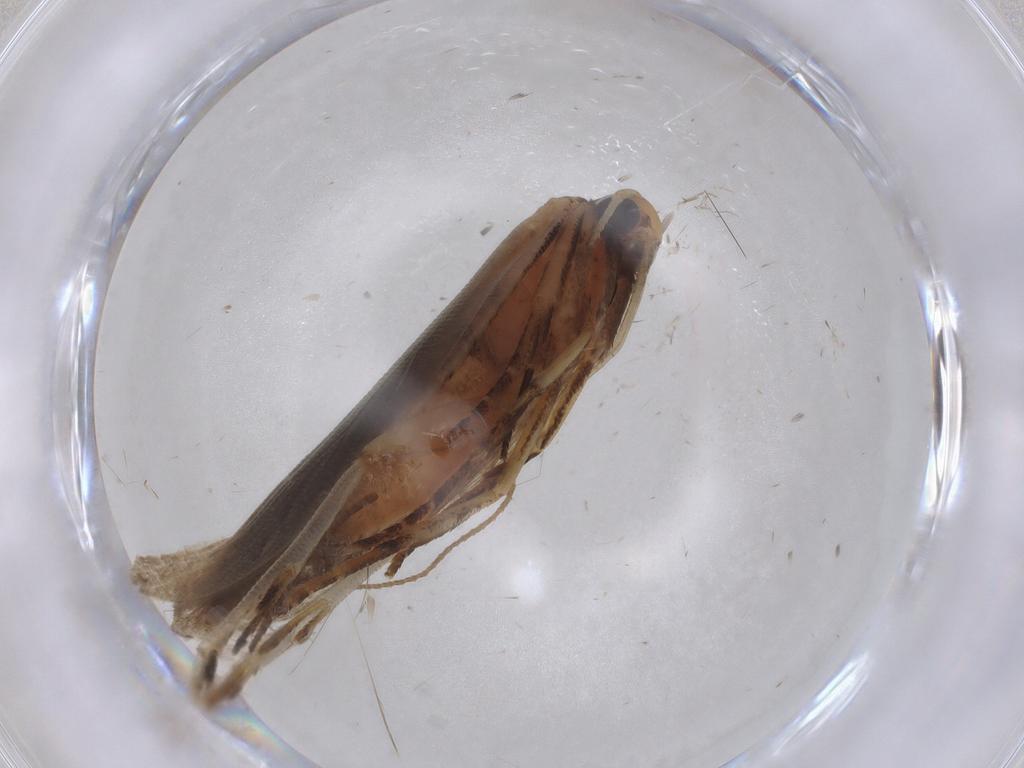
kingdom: Animalia
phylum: Arthropoda
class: Insecta
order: Lepidoptera
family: Gelechiidae
